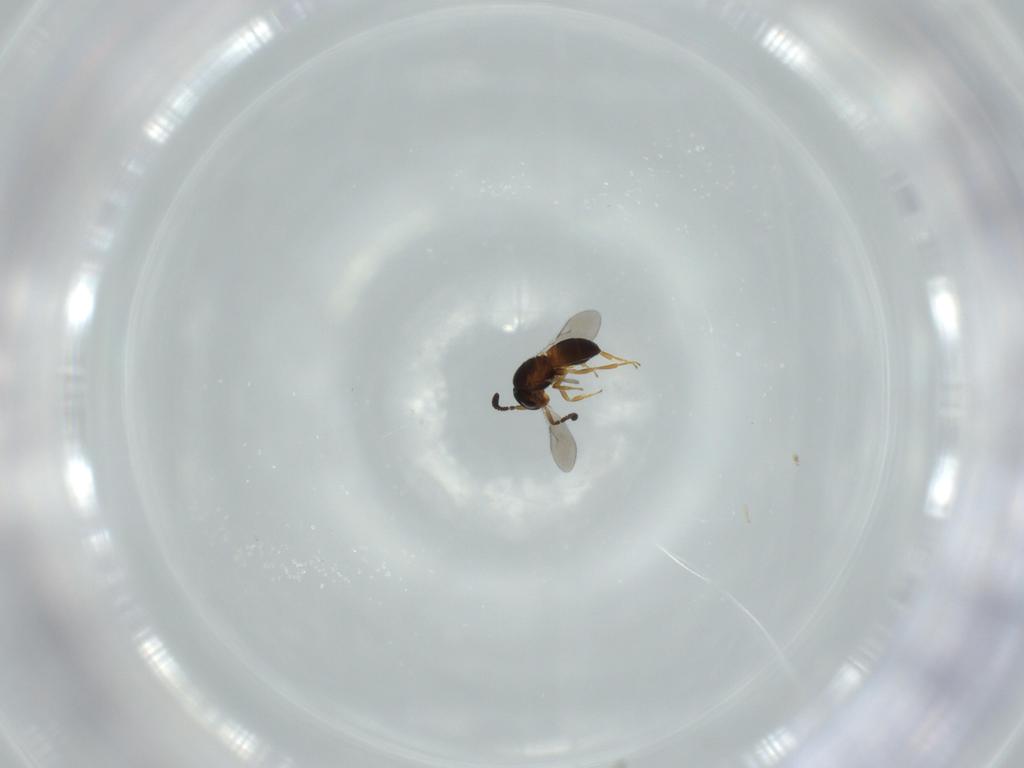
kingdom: Animalia
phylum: Arthropoda
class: Insecta
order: Hymenoptera
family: Scelionidae
